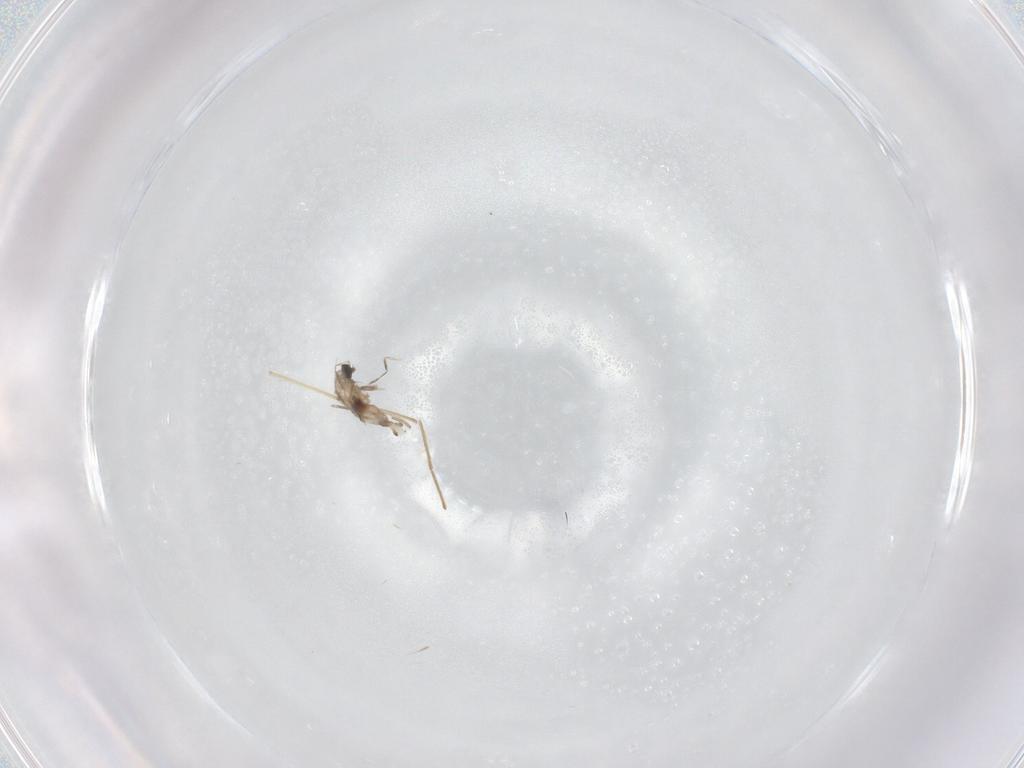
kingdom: Animalia
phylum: Arthropoda
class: Insecta
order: Diptera
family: Cecidomyiidae
